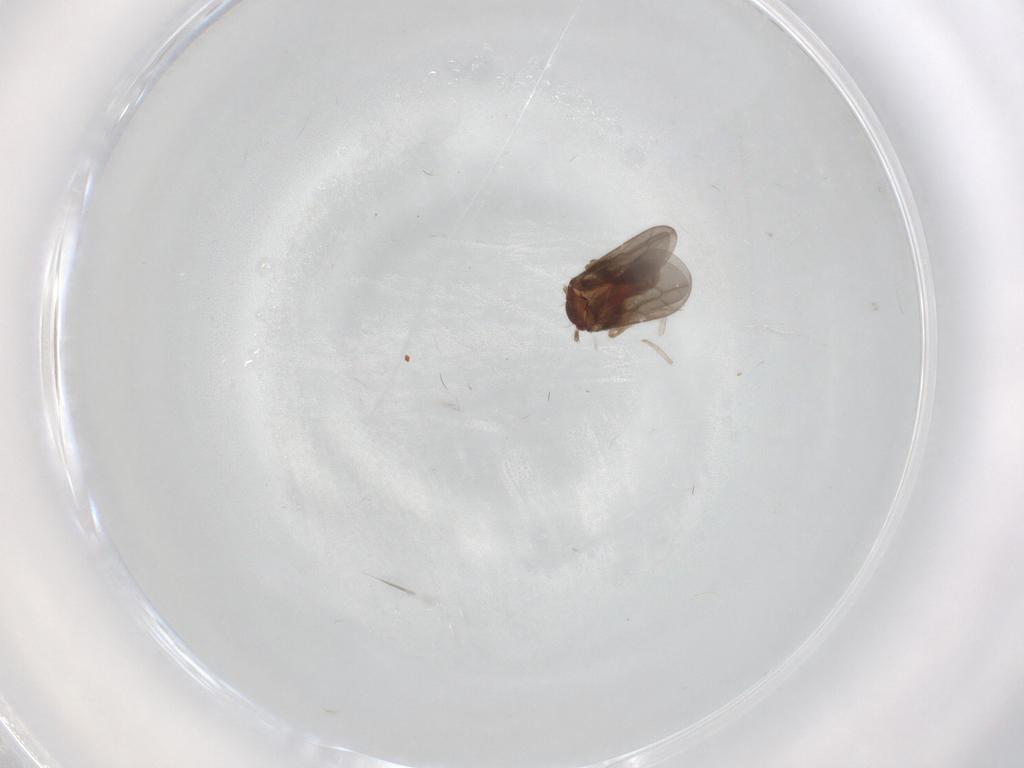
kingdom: Animalia
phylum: Arthropoda
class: Insecta
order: Hemiptera
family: Ceratocombidae
